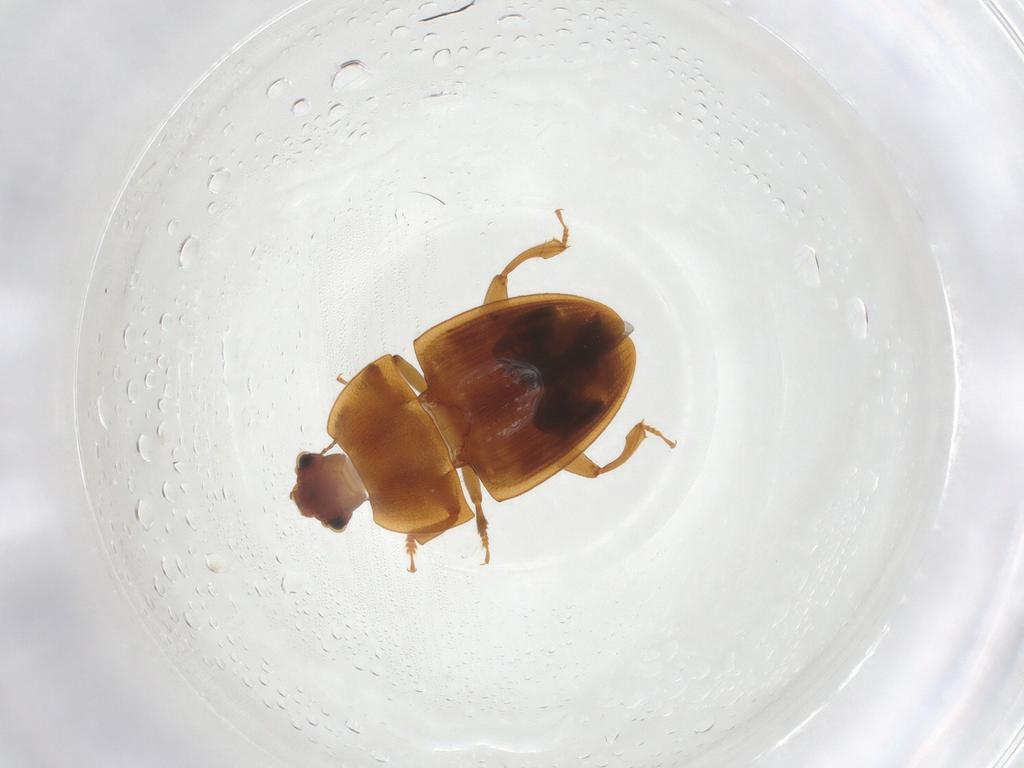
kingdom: Animalia
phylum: Arthropoda
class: Insecta
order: Coleoptera
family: Nitidulidae
